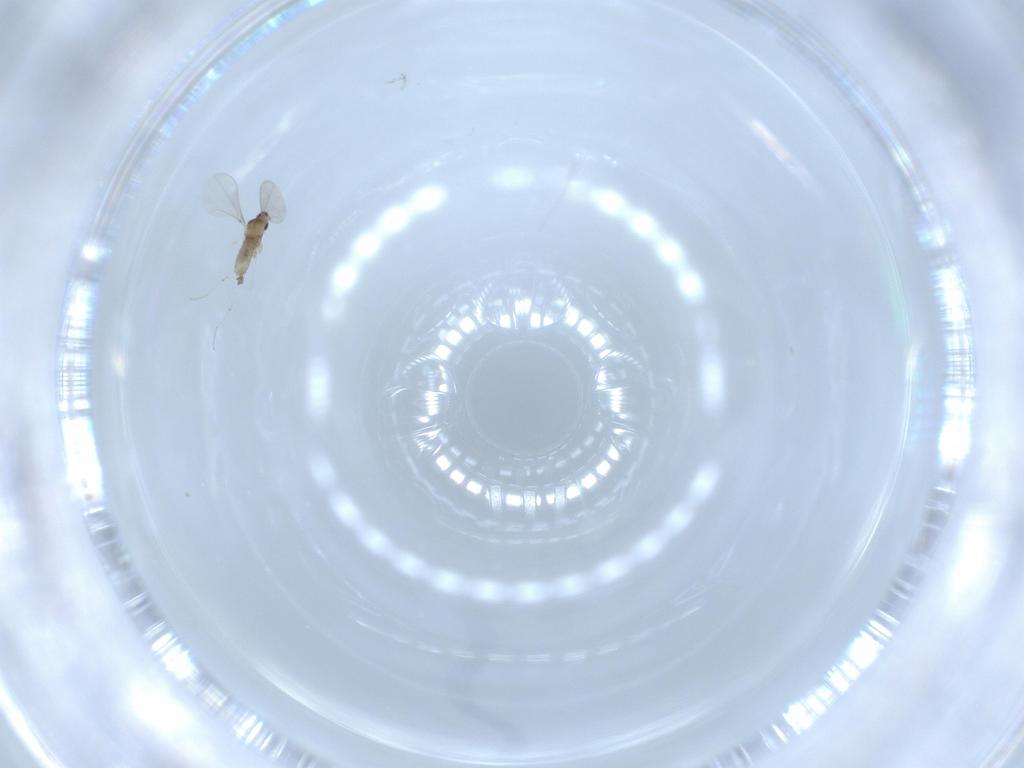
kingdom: Animalia
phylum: Arthropoda
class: Insecta
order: Diptera
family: Cecidomyiidae
